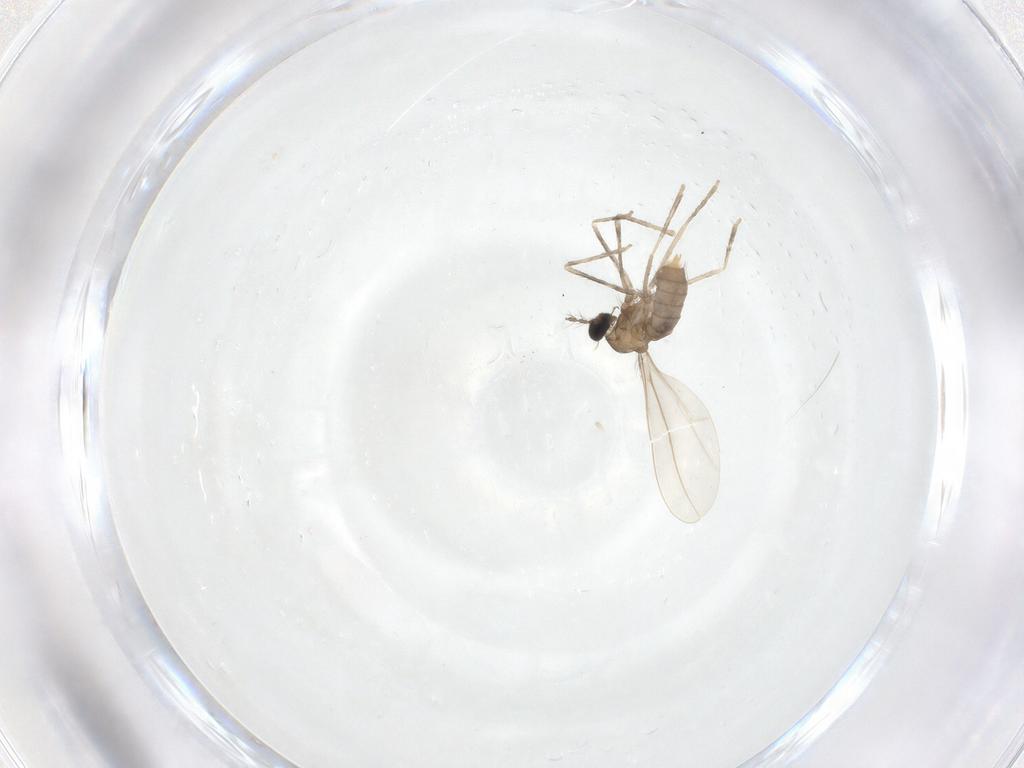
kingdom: Animalia
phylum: Arthropoda
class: Insecta
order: Diptera
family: Cecidomyiidae
